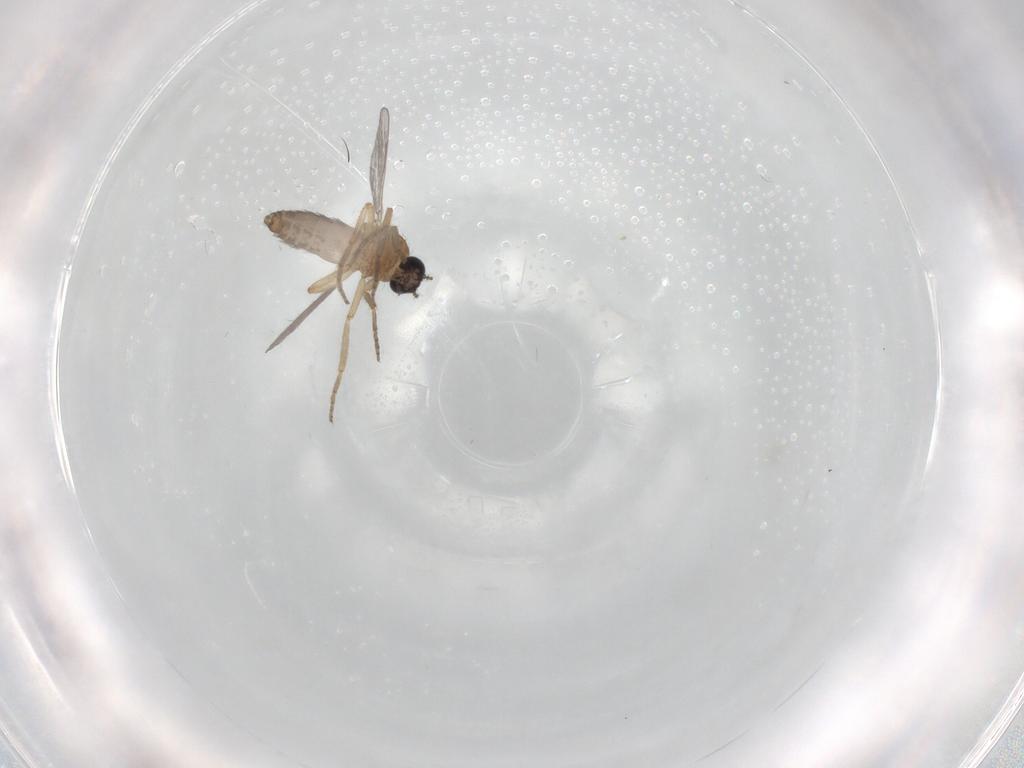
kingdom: Animalia
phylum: Arthropoda
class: Insecta
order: Diptera
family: Ceratopogonidae
